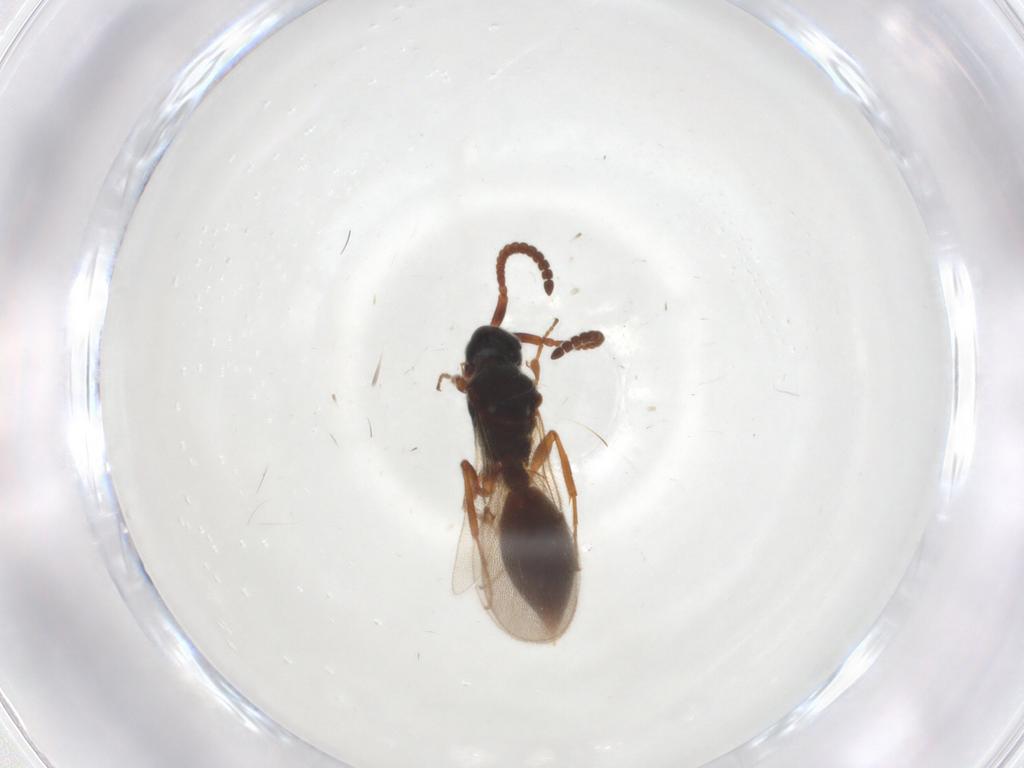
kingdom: Animalia
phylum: Arthropoda
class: Insecta
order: Hymenoptera
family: Diapriidae
